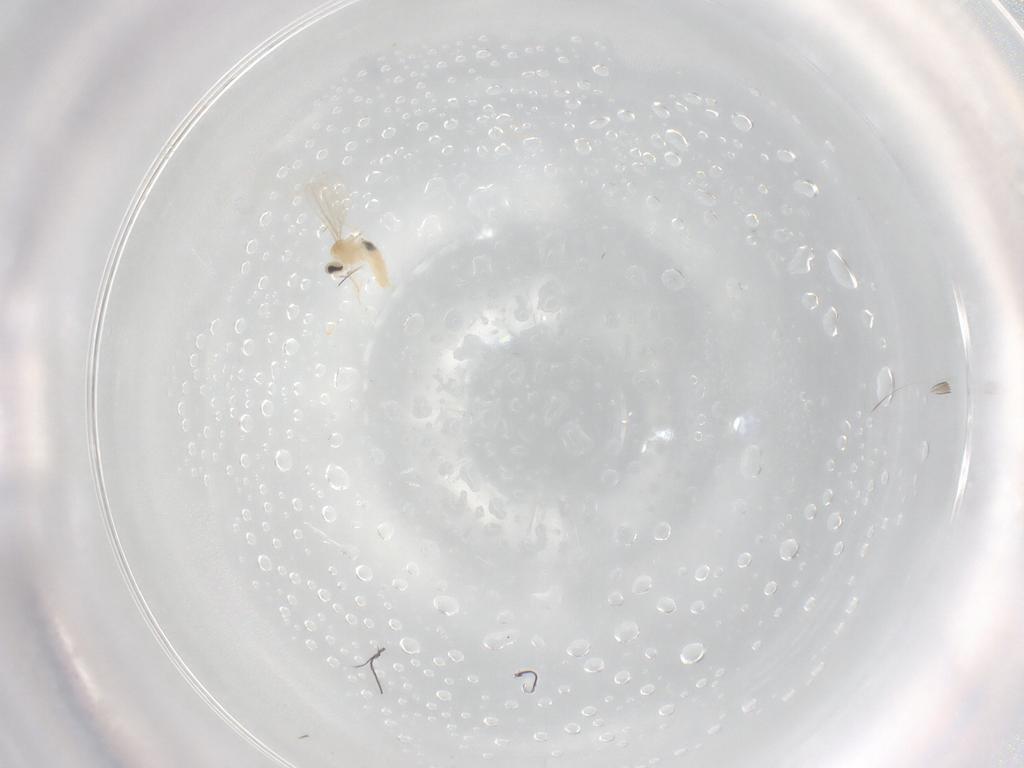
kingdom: Animalia
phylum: Arthropoda
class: Insecta
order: Diptera
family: Cecidomyiidae
